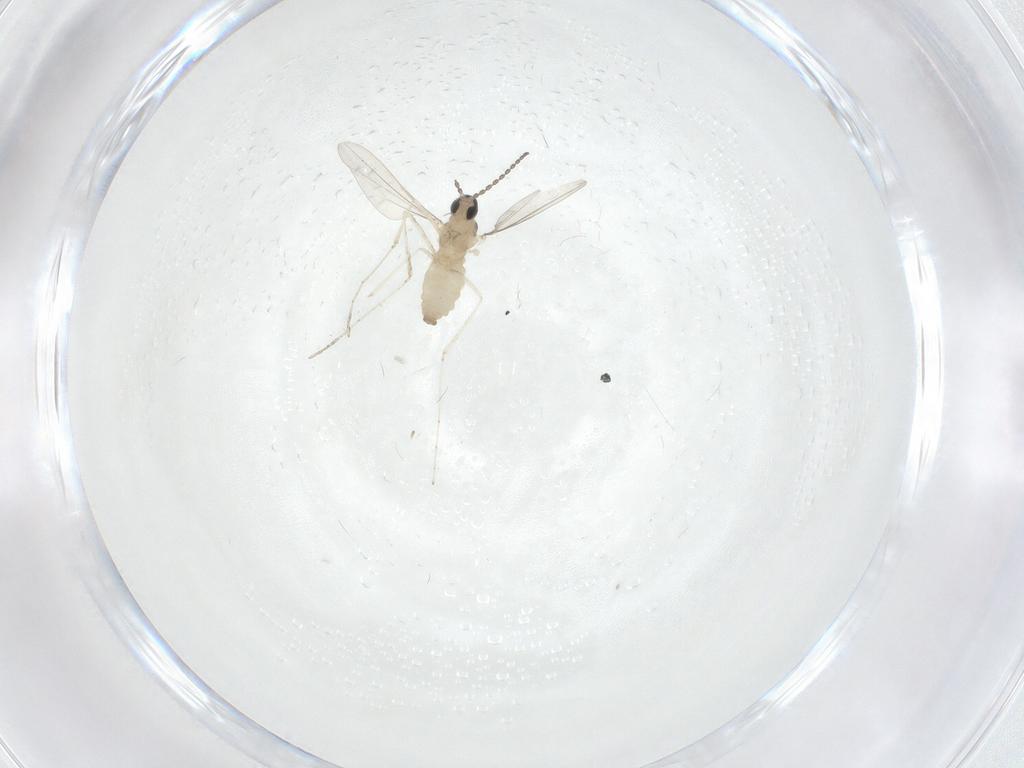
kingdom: Animalia
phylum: Arthropoda
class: Insecta
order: Diptera
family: Cecidomyiidae
